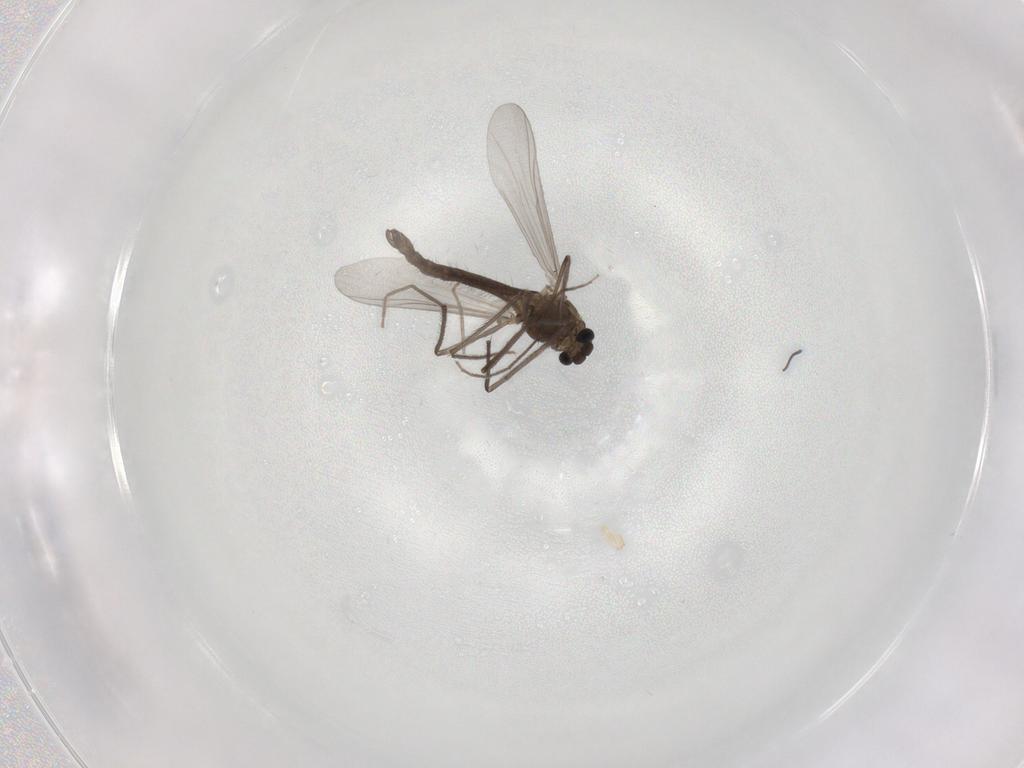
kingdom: Animalia
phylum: Arthropoda
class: Insecta
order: Diptera
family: Chironomidae
